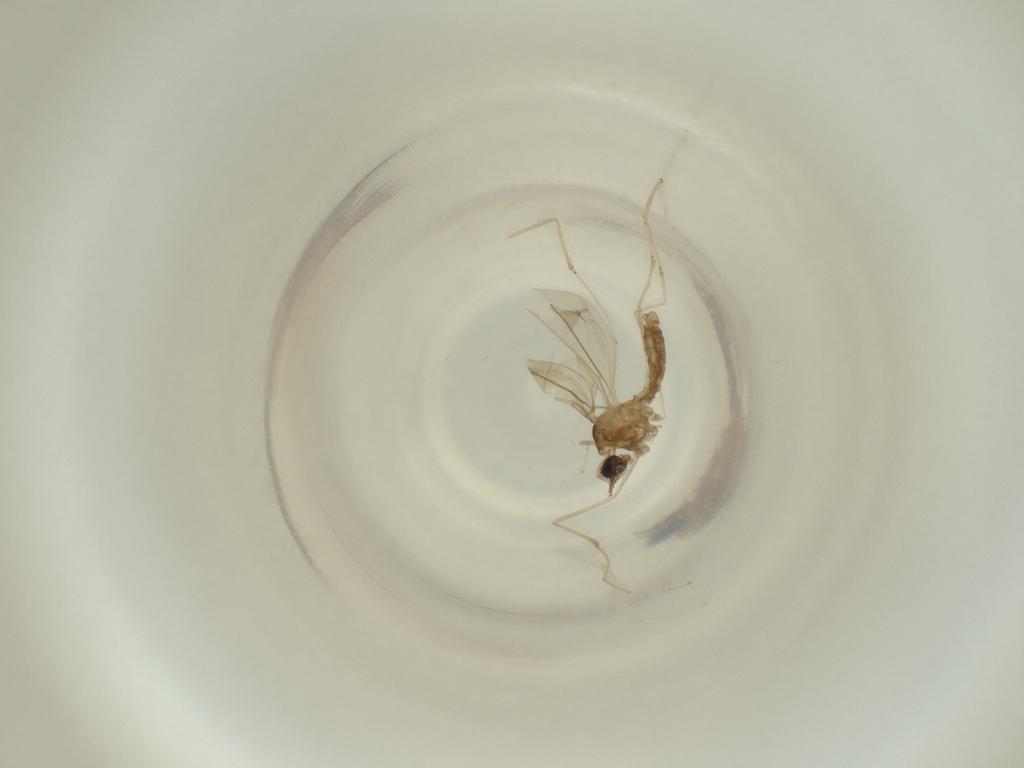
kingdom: Animalia
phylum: Arthropoda
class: Insecta
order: Diptera
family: Cecidomyiidae
